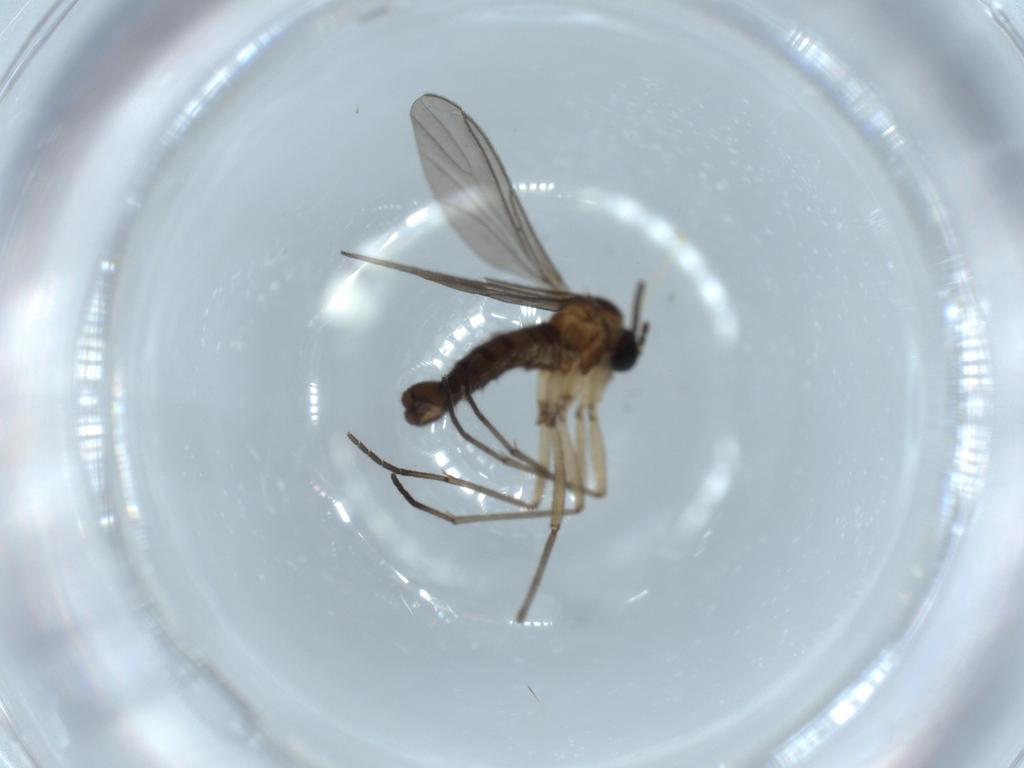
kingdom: Animalia
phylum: Arthropoda
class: Insecta
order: Diptera
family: Sciaridae
